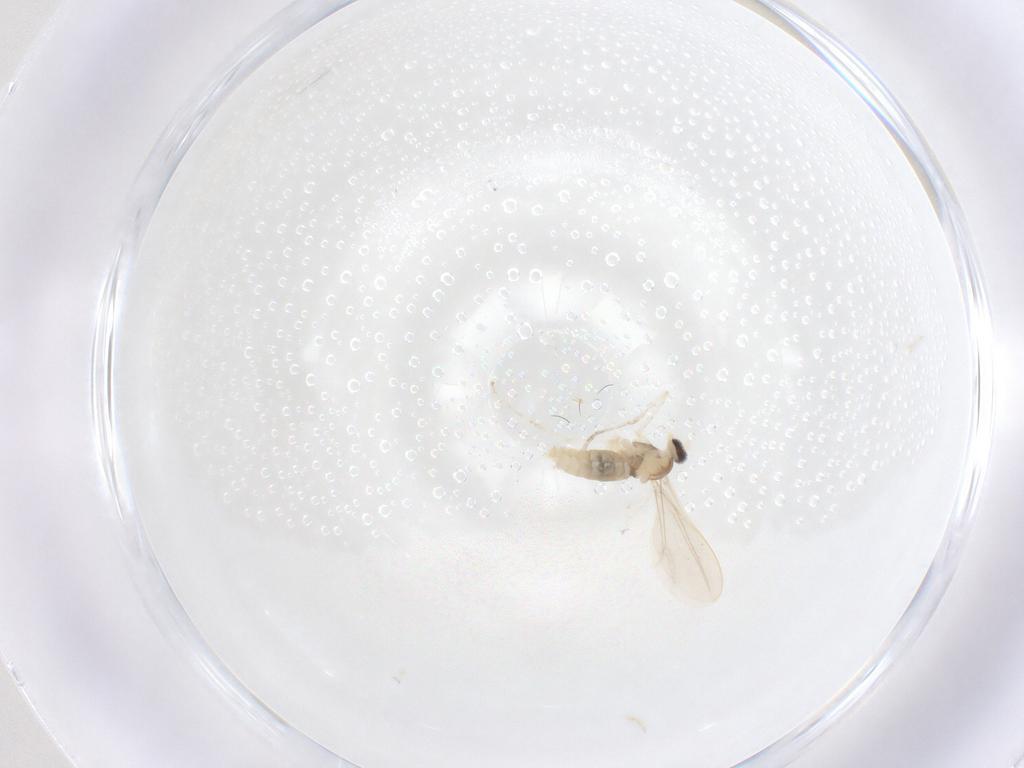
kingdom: Animalia
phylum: Arthropoda
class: Insecta
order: Diptera
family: Cecidomyiidae
